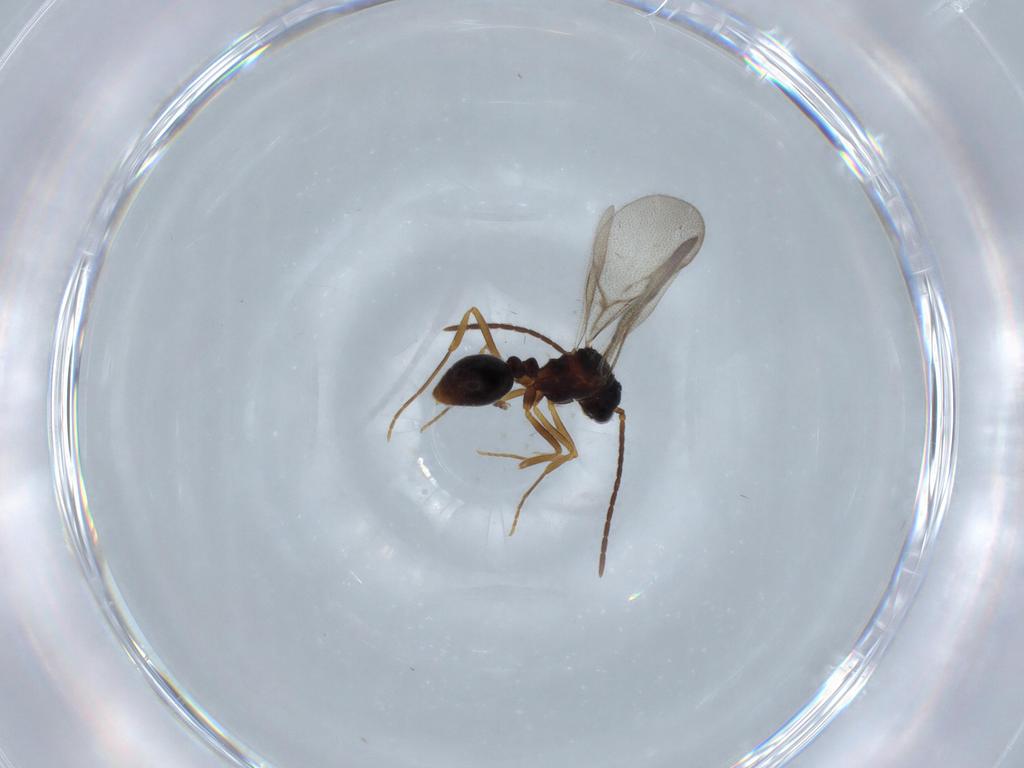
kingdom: Animalia
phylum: Arthropoda
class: Insecta
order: Hymenoptera
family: Formicidae
